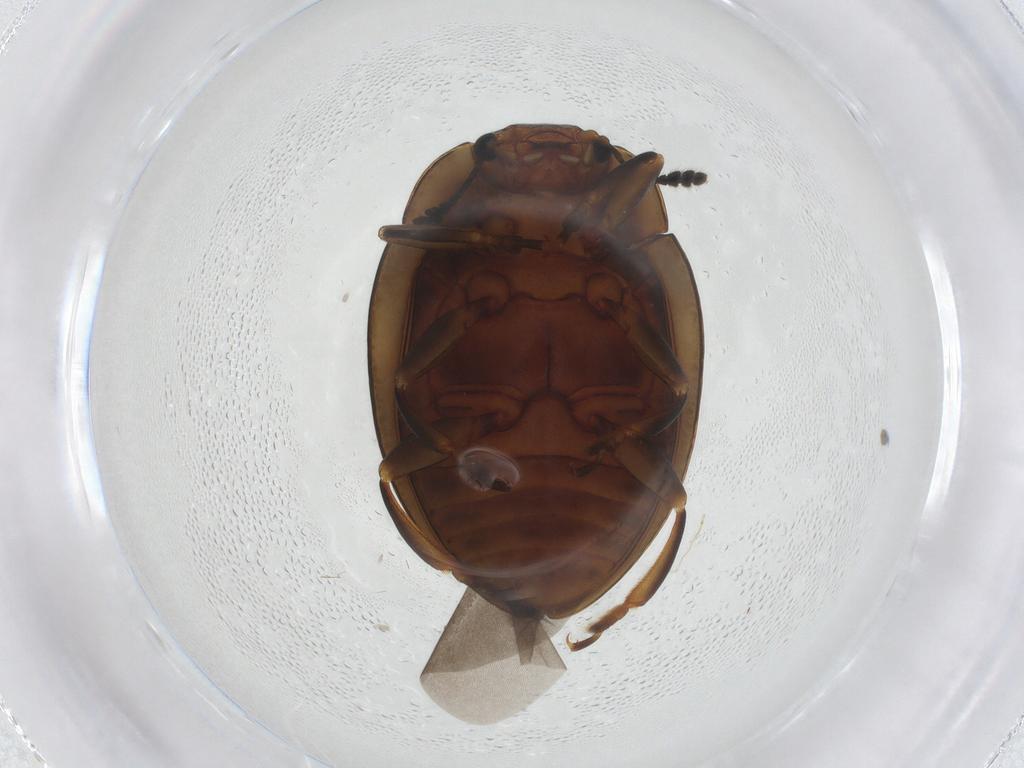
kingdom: Animalia
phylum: Arthropoda
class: Insecta
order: Coleoptera
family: Erotylidae
